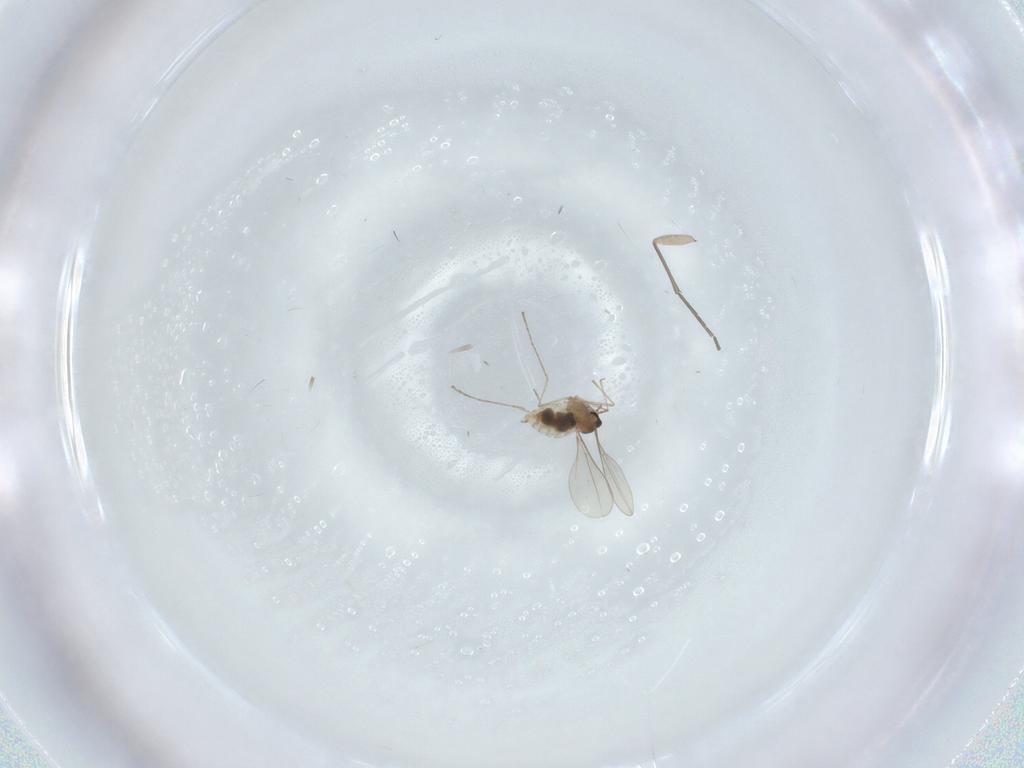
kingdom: Animalia
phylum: Arthropoda
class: Insecta
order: Diptera
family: Cecidomyiidae
